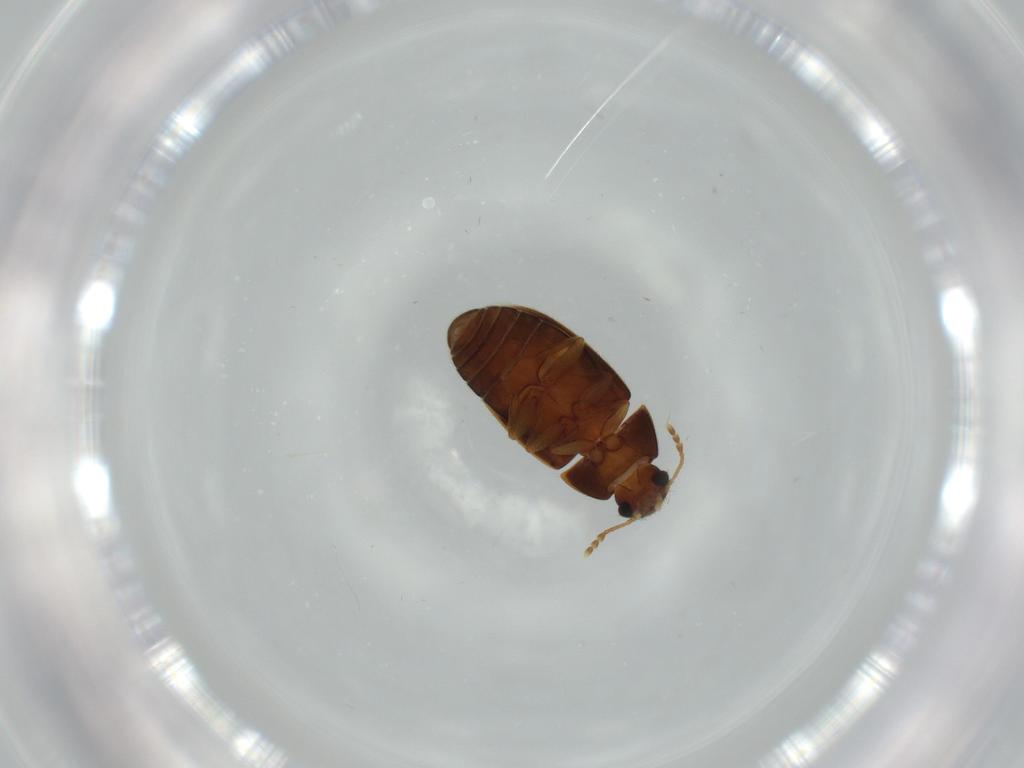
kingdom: Animalia
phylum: Arthropoda
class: Insecta
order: Coleoptera
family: Mycetophagidae
